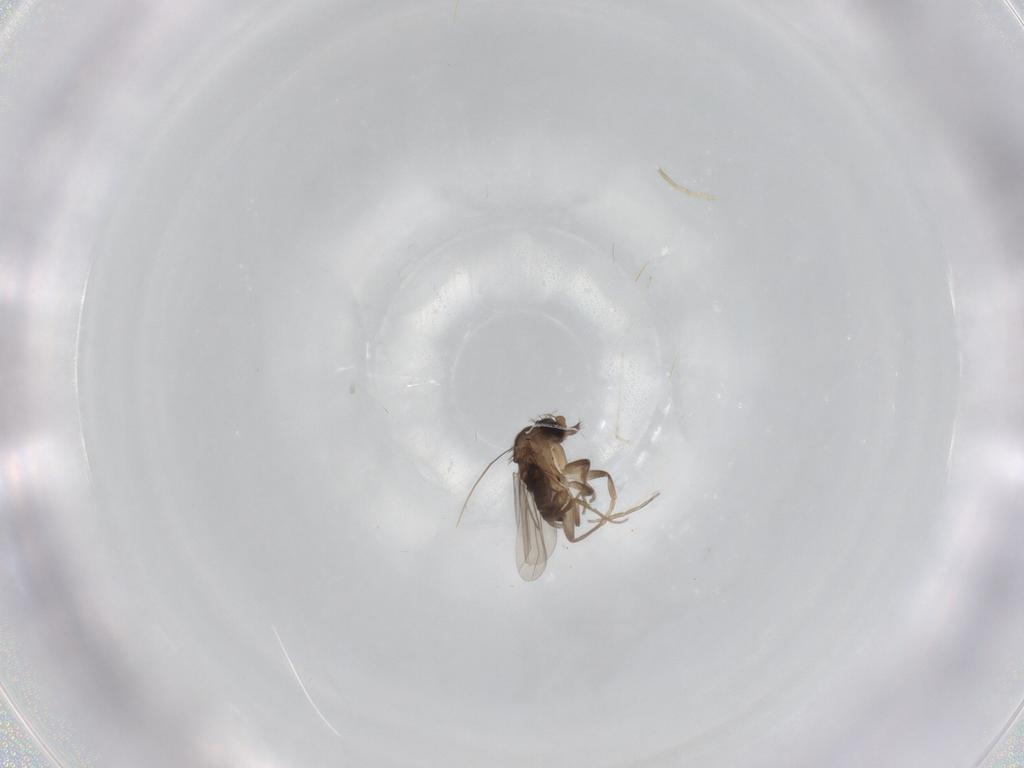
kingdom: Animalia
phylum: Arthropoda
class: Insecta
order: Diptera
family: Phoridae
